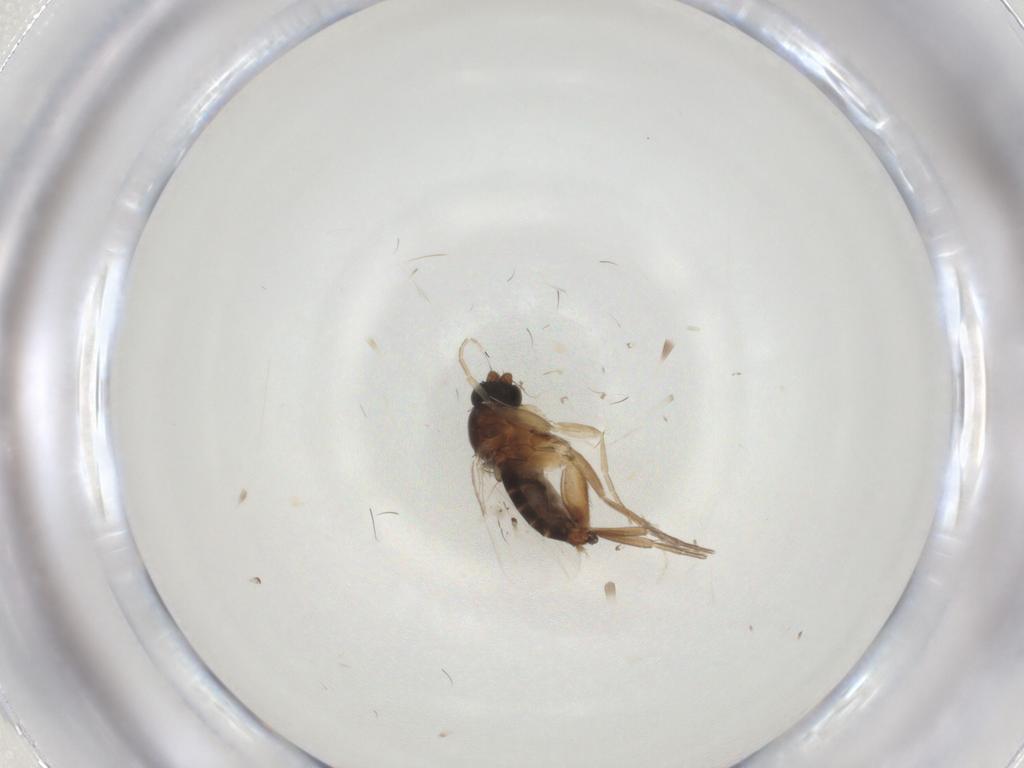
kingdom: Animalia
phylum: Arthropoda
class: Insecta
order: Diptera
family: Phoridae
